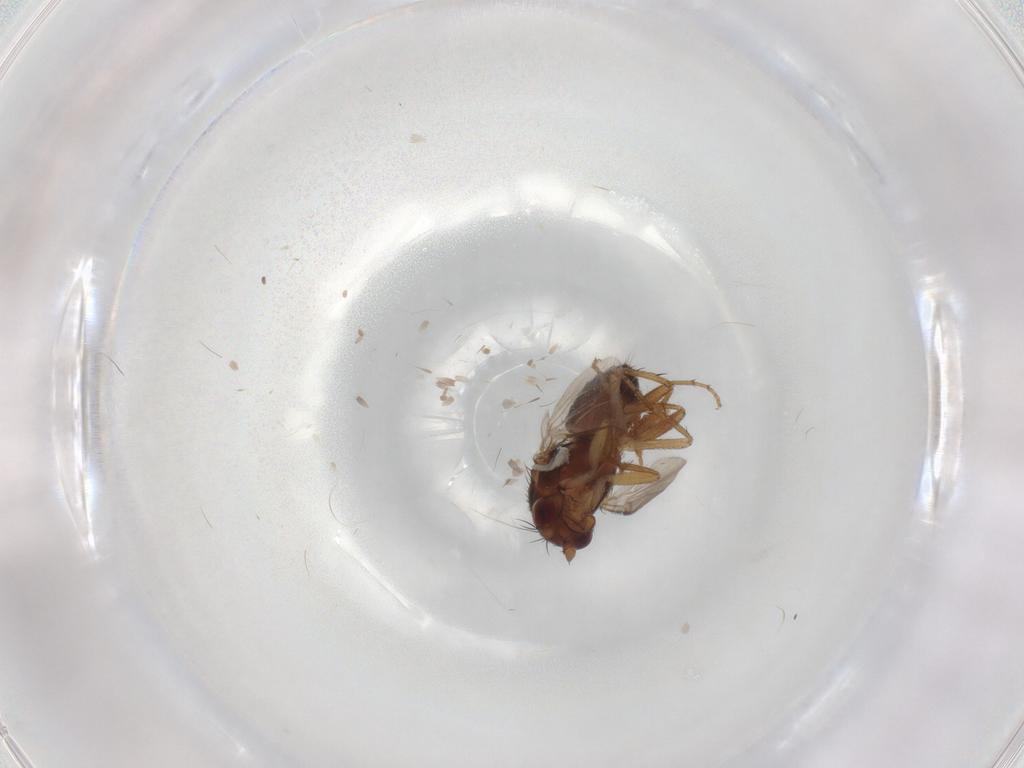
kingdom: Animalia
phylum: Arthropoda
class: Insecta
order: Diptera
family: Sphaeroceridae
